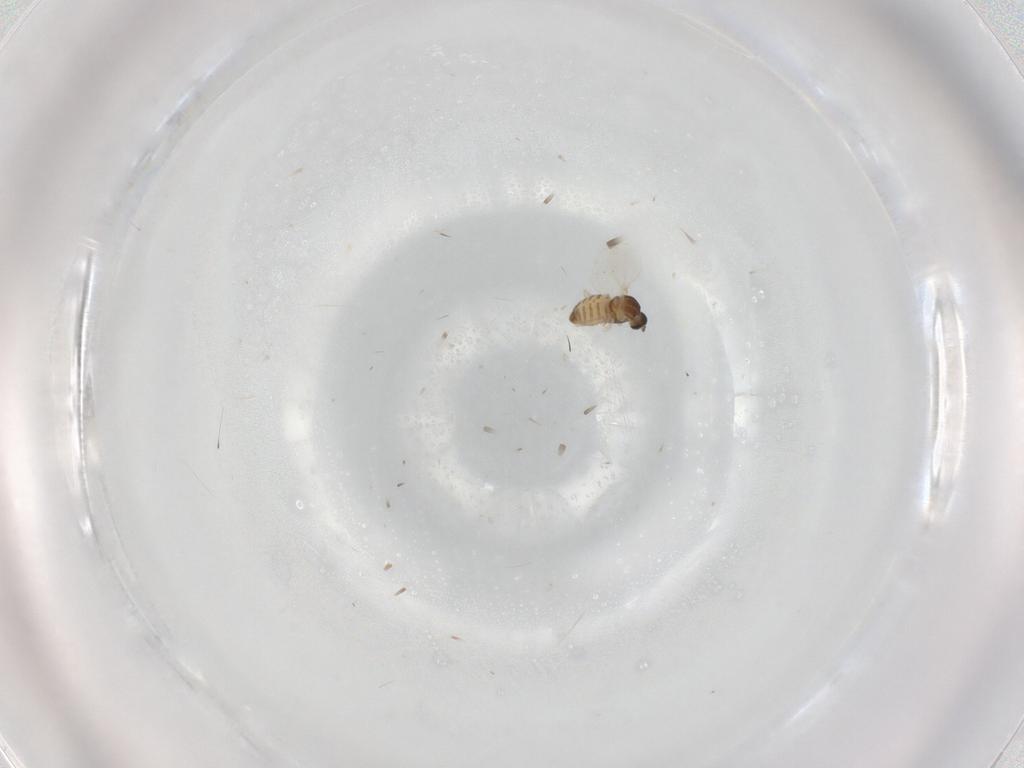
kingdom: Animalia
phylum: Arthropoda
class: Insecta
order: Diptera
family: Cecidomyiidae
